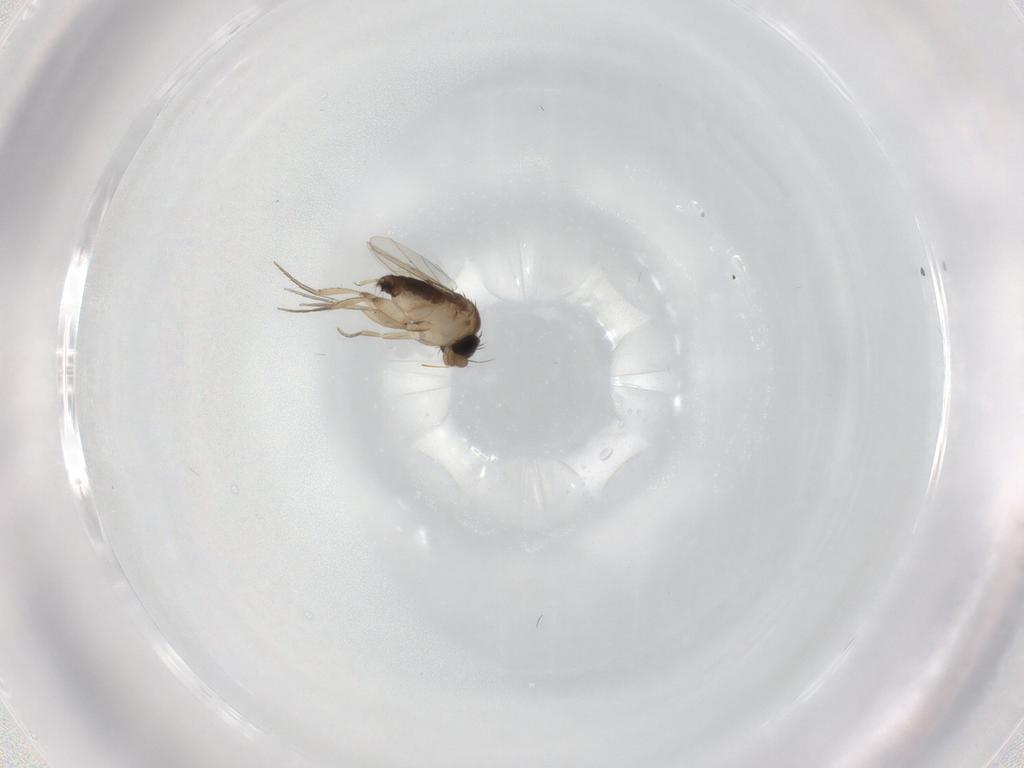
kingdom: Animalia
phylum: Arthropoda
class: Insecta
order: Diptera
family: Phoridae
